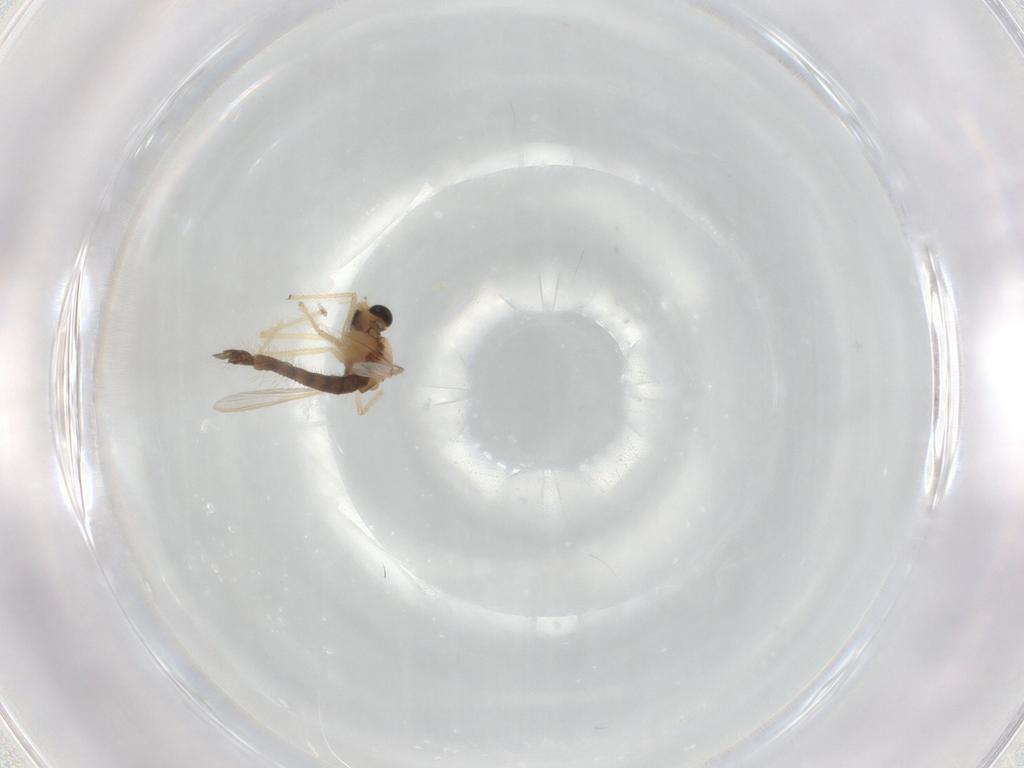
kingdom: Animalia
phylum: Arthropoda
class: Insecta
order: Diptera
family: Chironomidae
